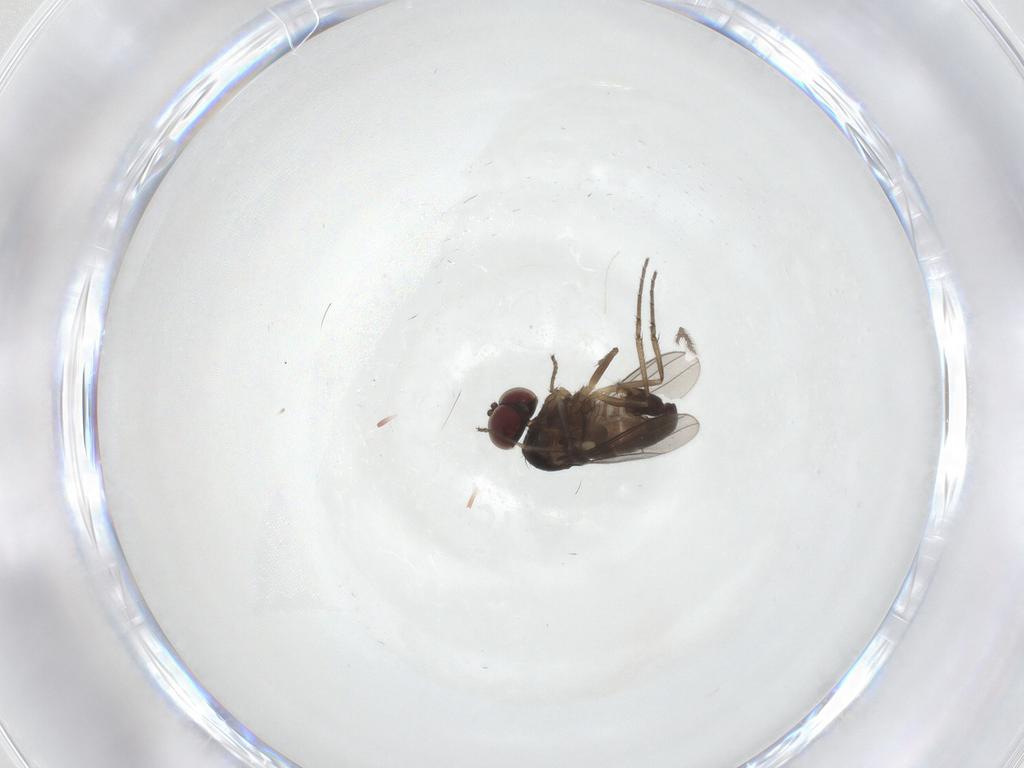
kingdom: Animalia
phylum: Arthropoda
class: Insecta
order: Diptera
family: Mycetophilidae
